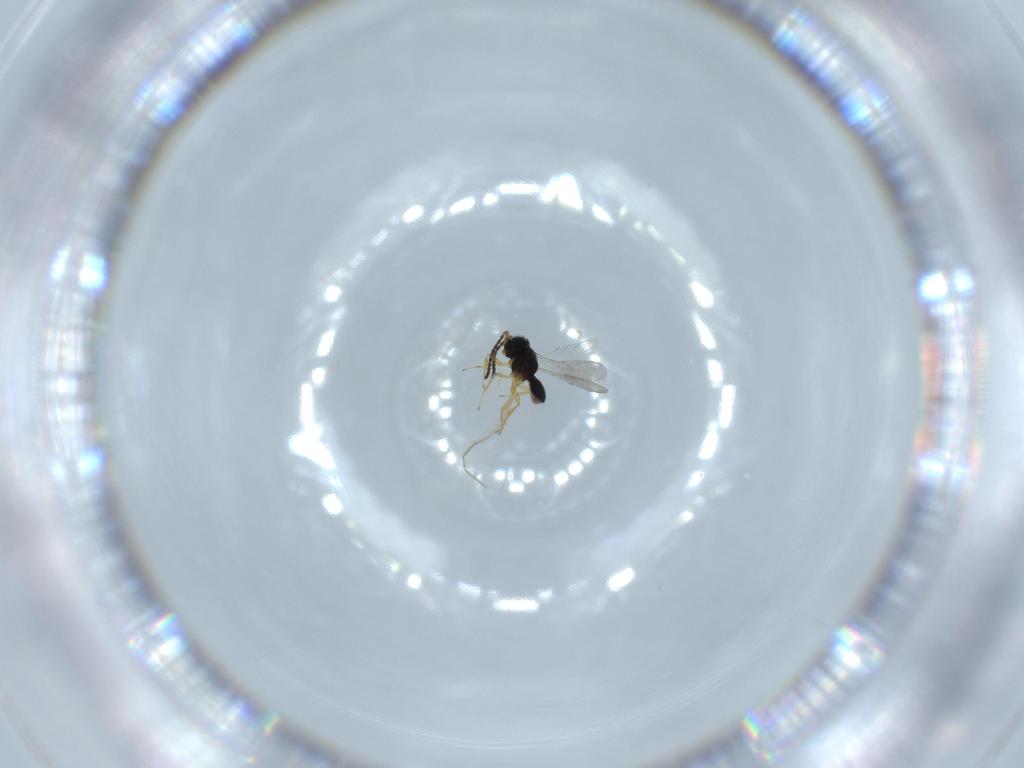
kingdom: Animalia
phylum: Arthropoda
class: Insecta
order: Hymenoptera
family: Scelionidae
